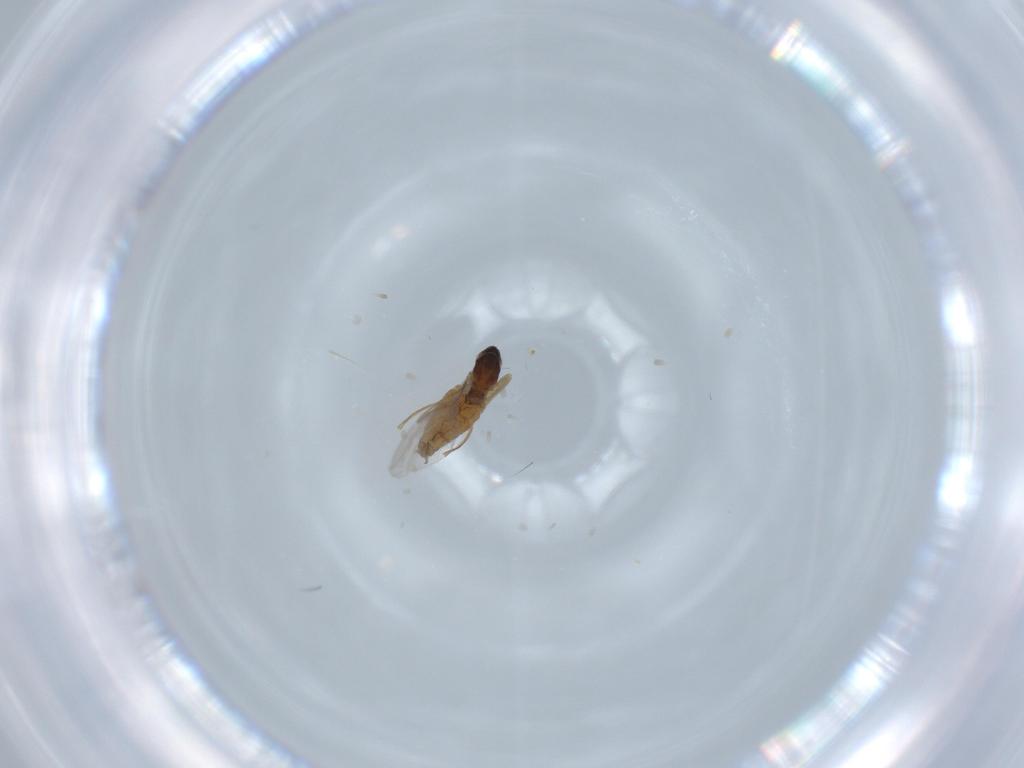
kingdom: Animalia
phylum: Arthropoda
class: Insecta
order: Diptera
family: Cecidomyiidae
